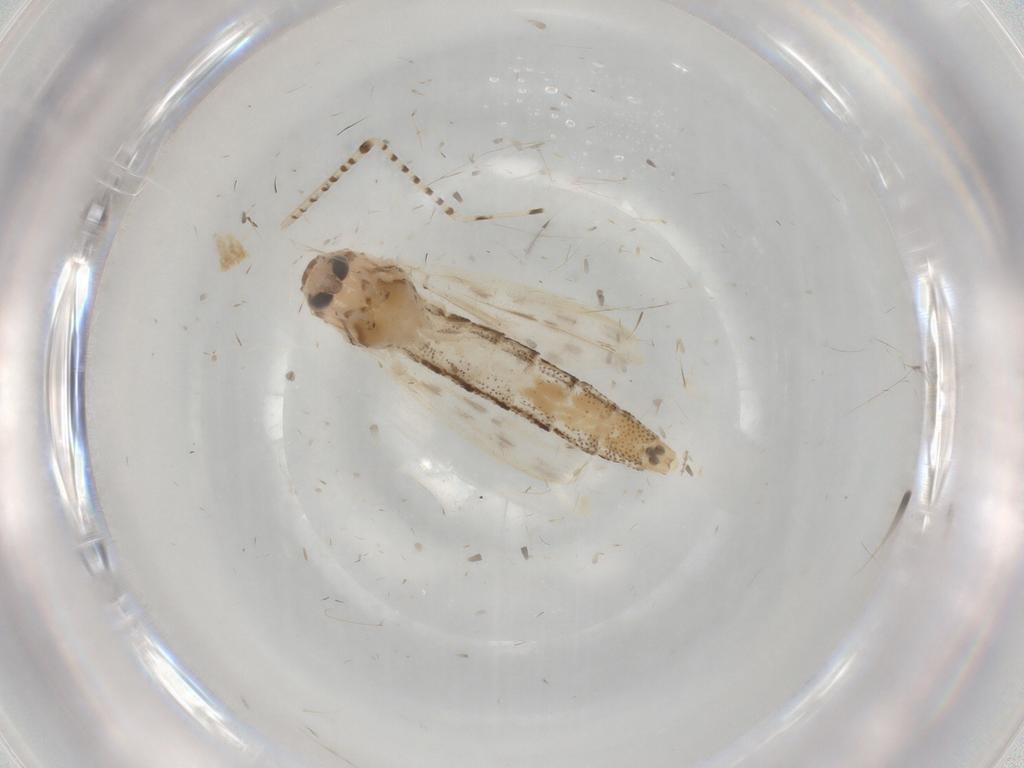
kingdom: Animalia
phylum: Arthropoda
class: Insecta
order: Diptera
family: Chaoboridae
